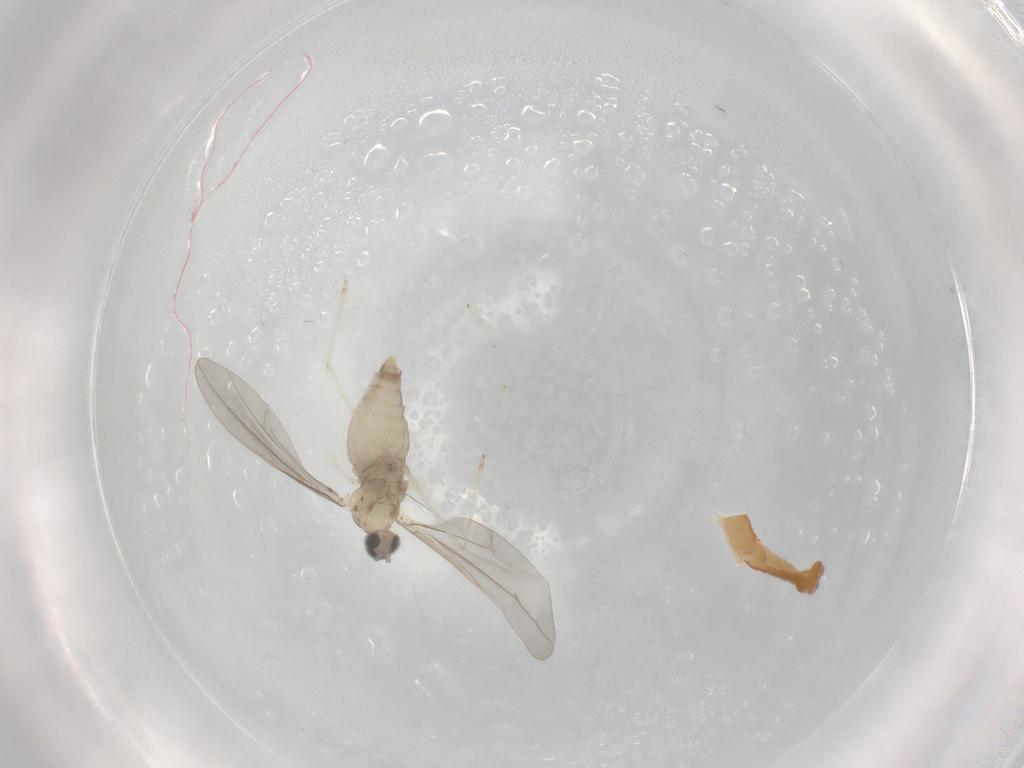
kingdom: Animalia
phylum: Arthropoda
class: Insecta
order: Diptera
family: Cecidomyiidae
